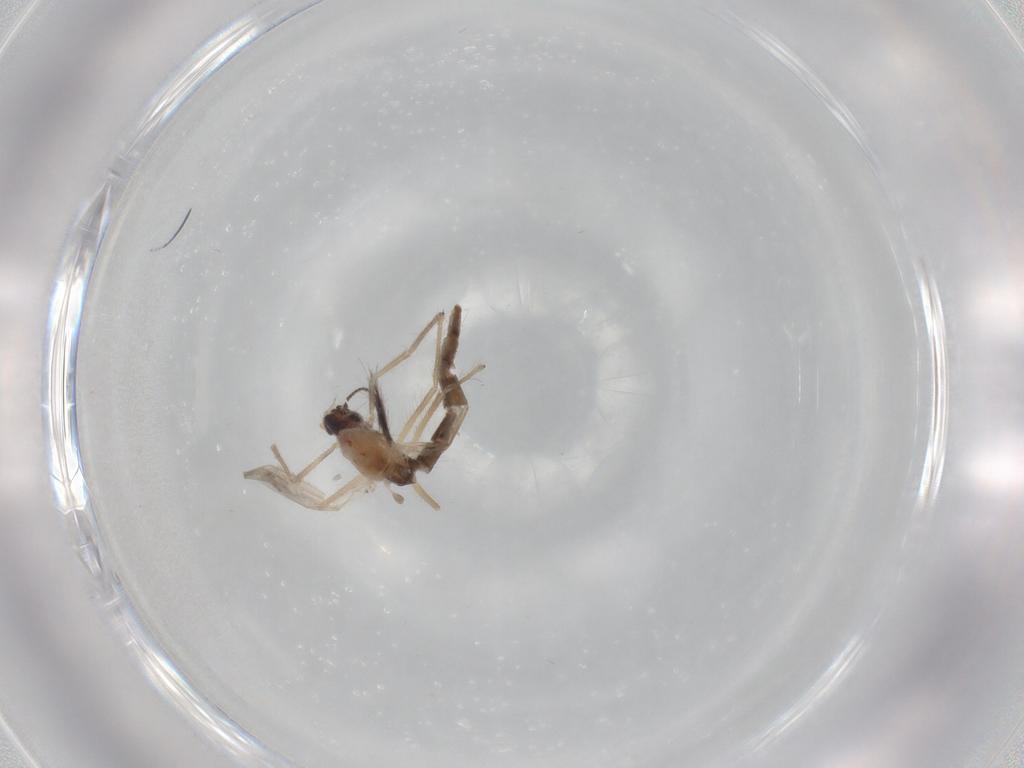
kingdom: Animalia
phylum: Arthropoda
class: Insecta
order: Diptera
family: Chironomidae
